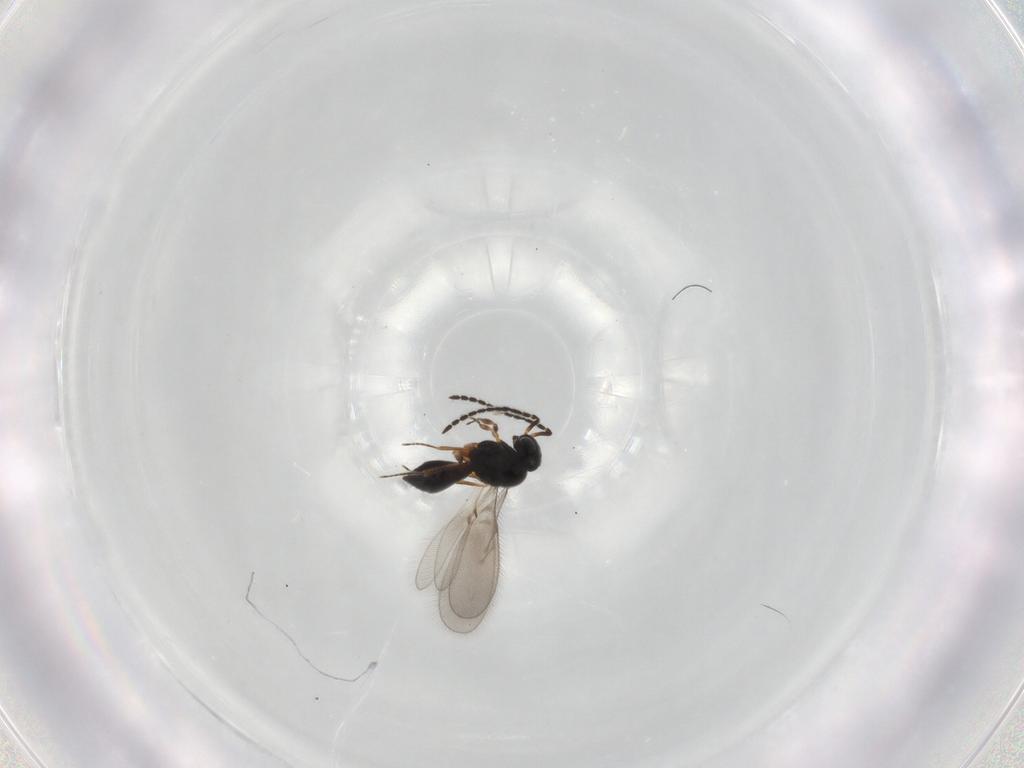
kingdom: Animalia
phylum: Arthropoda
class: Insecta
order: Hymenoptera
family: Scelionidae
